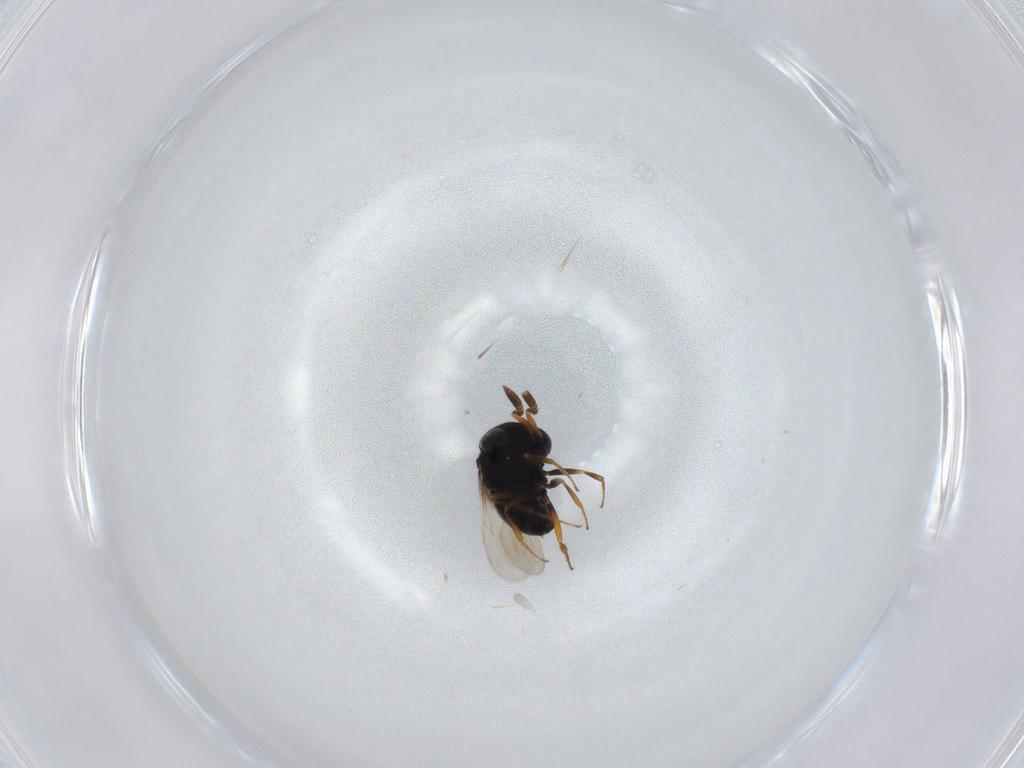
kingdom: Animalia
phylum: Arthropoda
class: Insecta
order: Hymenoptera
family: Scelionidae
